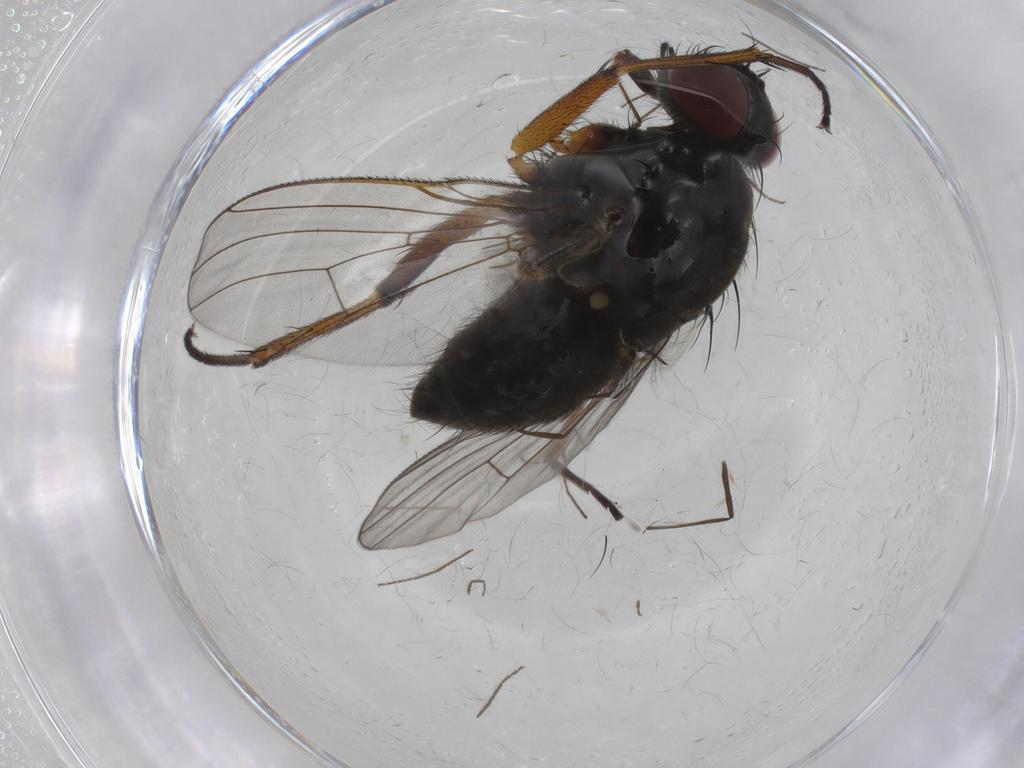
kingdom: Animalia
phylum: Arthropoda
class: Insecta
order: Diptera
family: Muscidae
